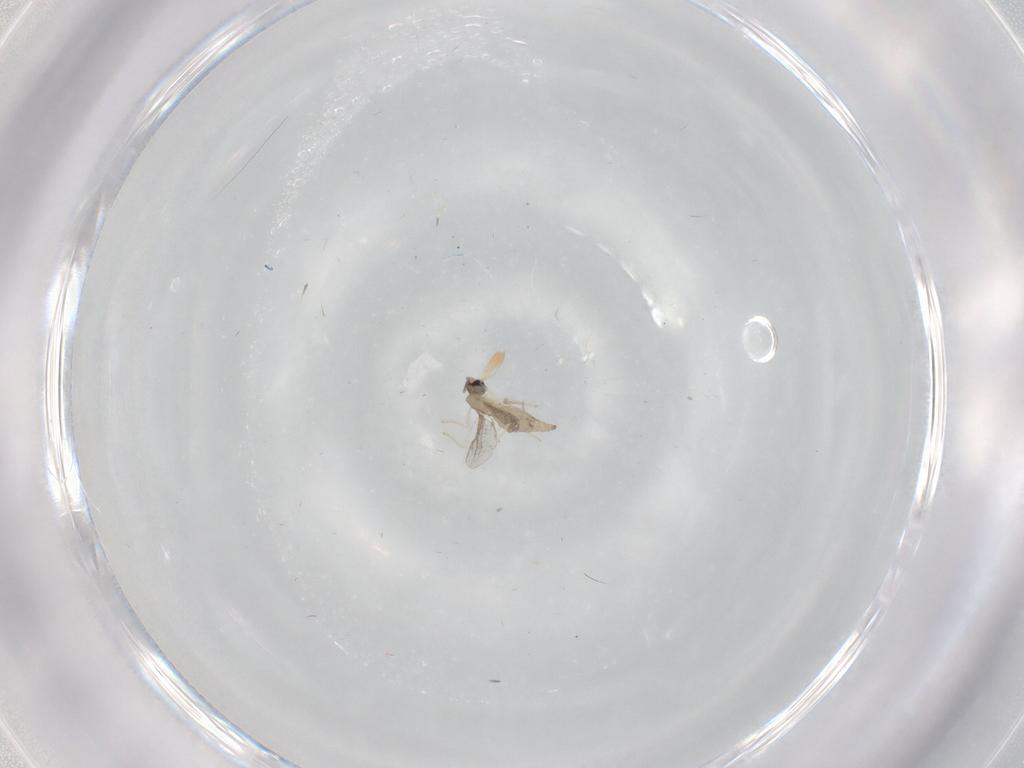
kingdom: Animalia
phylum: Arthropoda
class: Insecta
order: Diptera
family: Cecidomyiidae
